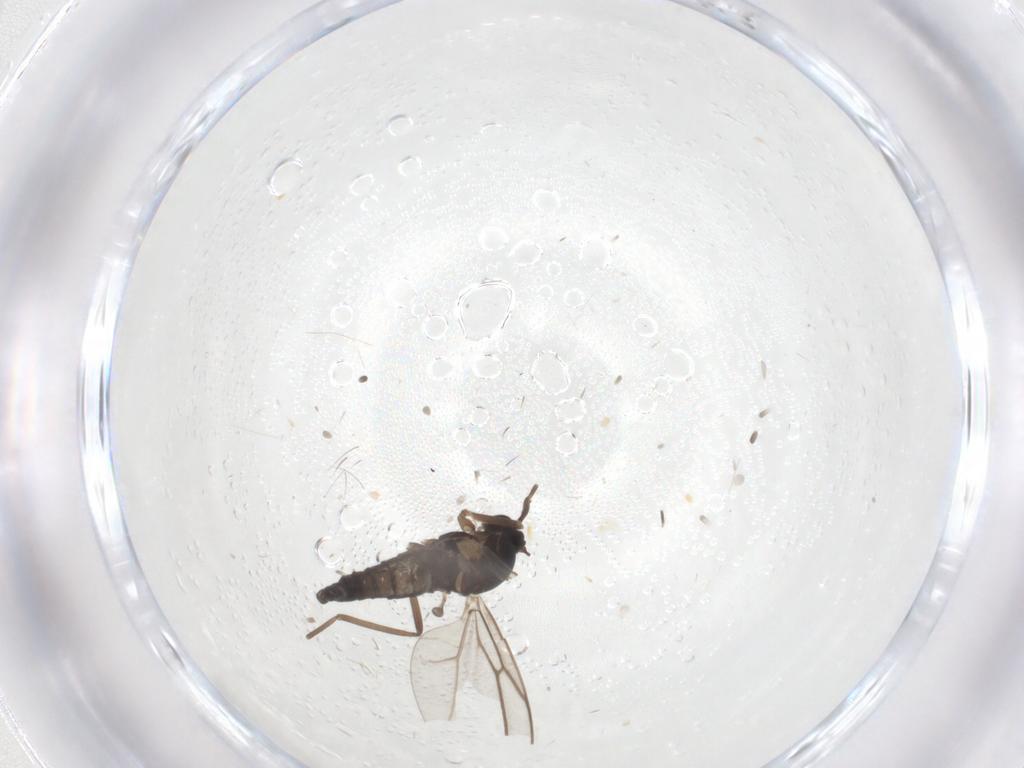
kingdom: Animalia
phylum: Arthropoda
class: Insecta
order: Diptera
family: Cecidomyiidae
